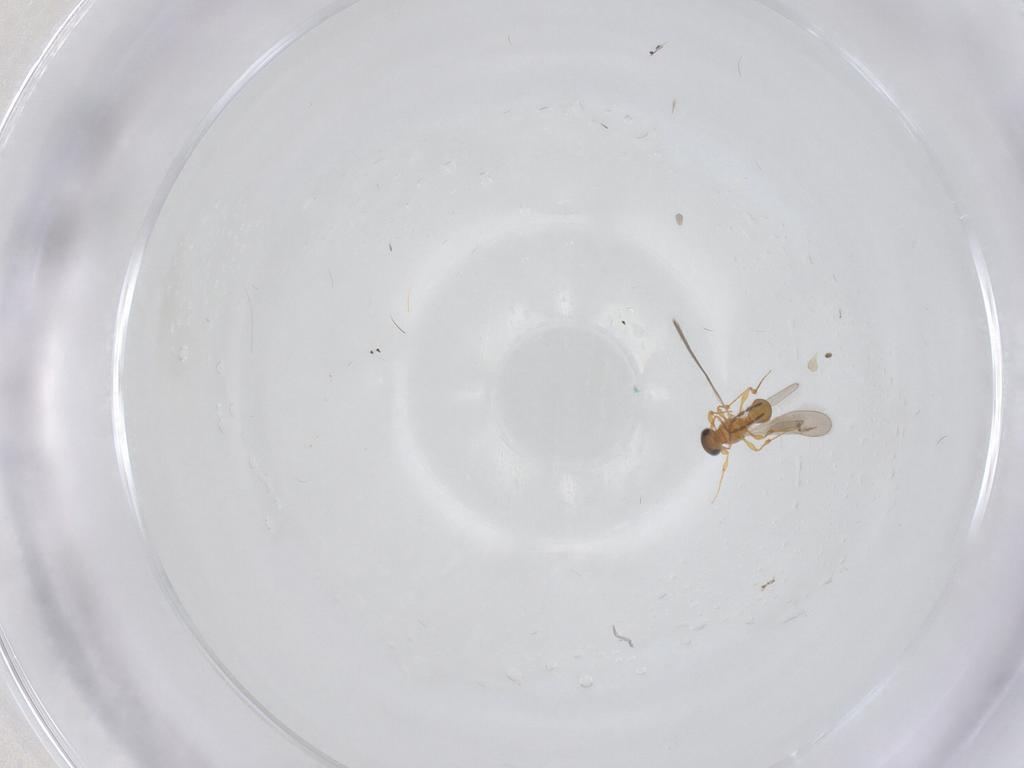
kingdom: Animalia
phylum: Arthropoda
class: Insecta
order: Hymenoptera
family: Platygastridae
